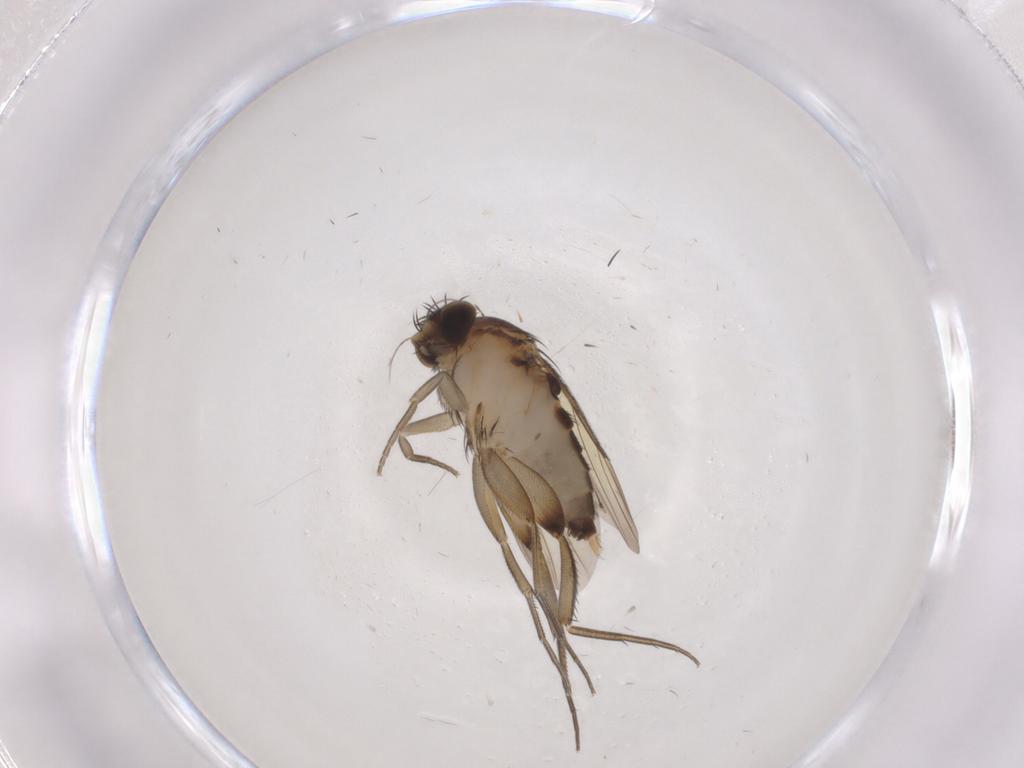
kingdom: Animalia
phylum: Arthropoda
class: Insecta
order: Diptera
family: Phoridae
